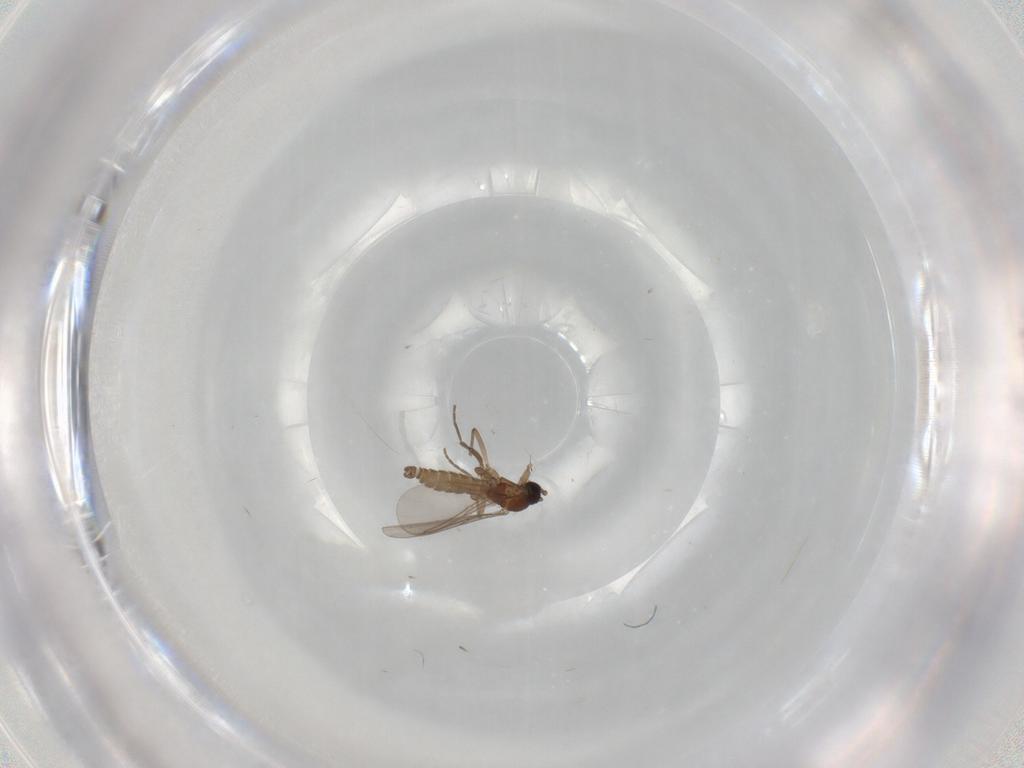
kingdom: Animalia
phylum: Arthropoda
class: Insecta
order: Diptera
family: Sciaridae
